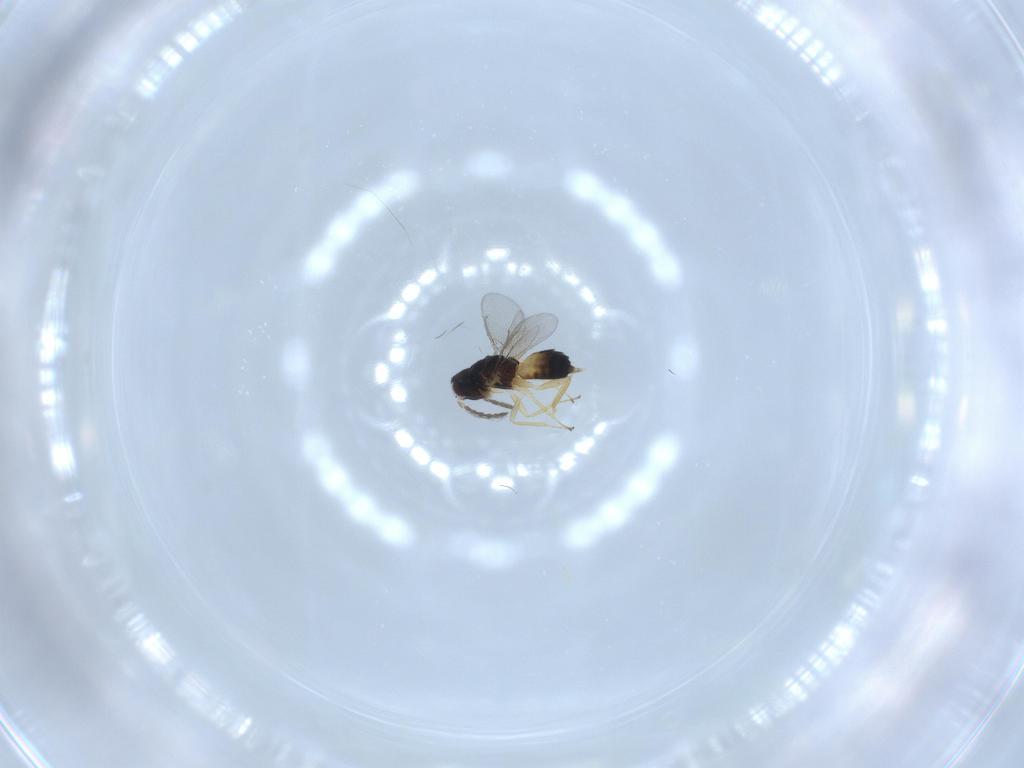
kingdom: Animalia
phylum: Arthropoda
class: Insecta
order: Hymenoptera
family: Eulophidae
